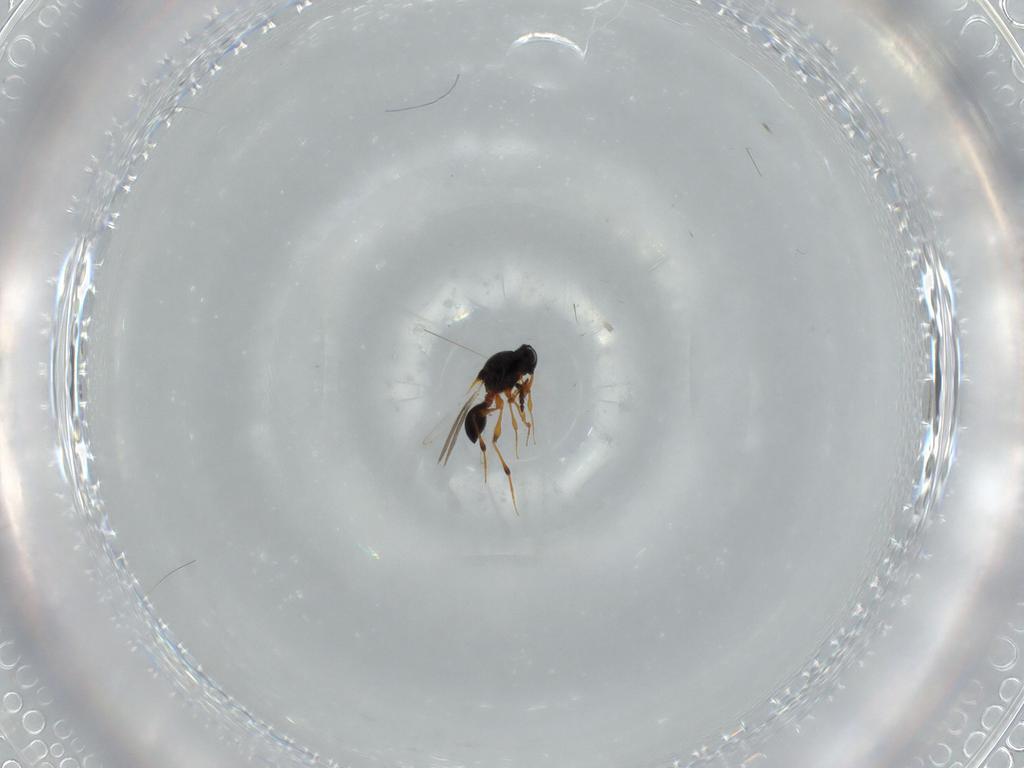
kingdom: Animalia
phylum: Arthropoda
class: Insecta
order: Hymenoptera
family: Platygastridae
